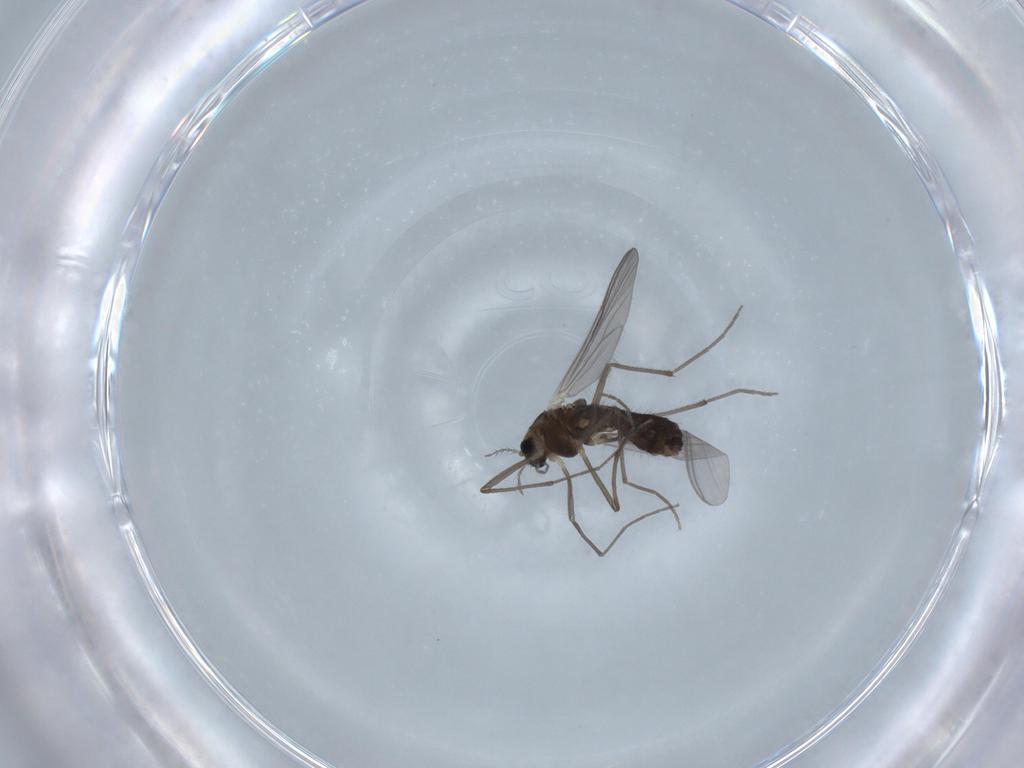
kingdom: Animalia
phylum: Arthropoda
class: Insecta
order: Diptera
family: Chironomidae
